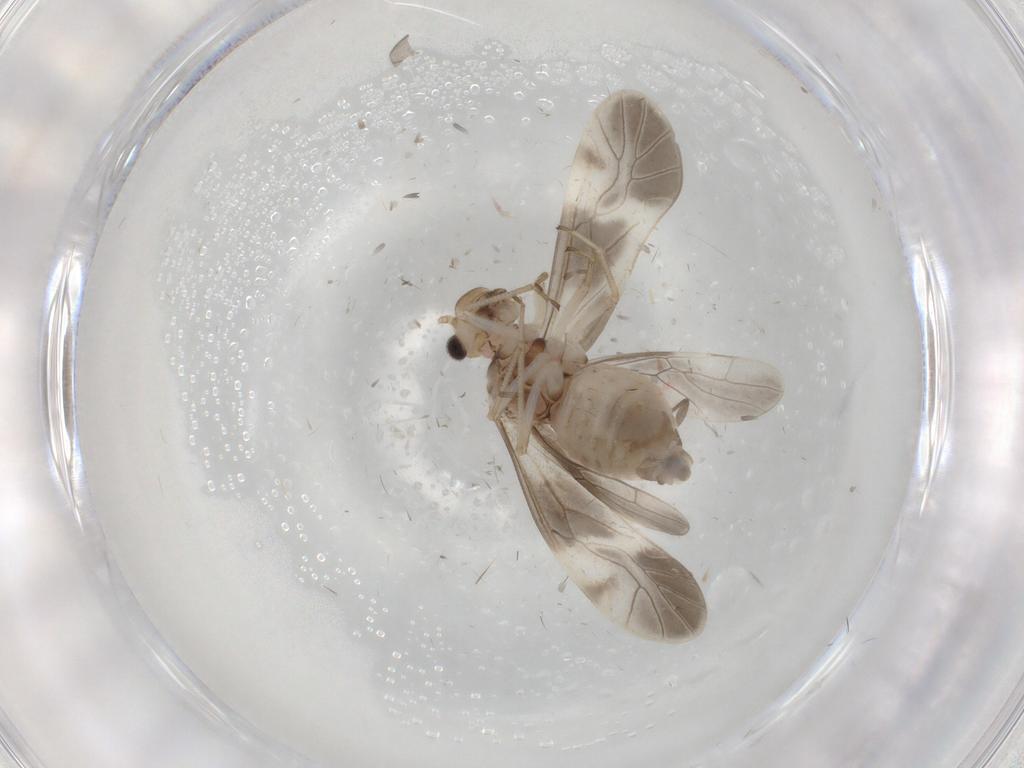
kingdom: Animalia
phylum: Arthropoda
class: Insecta
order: Psocodea
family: Caeciliusidae
